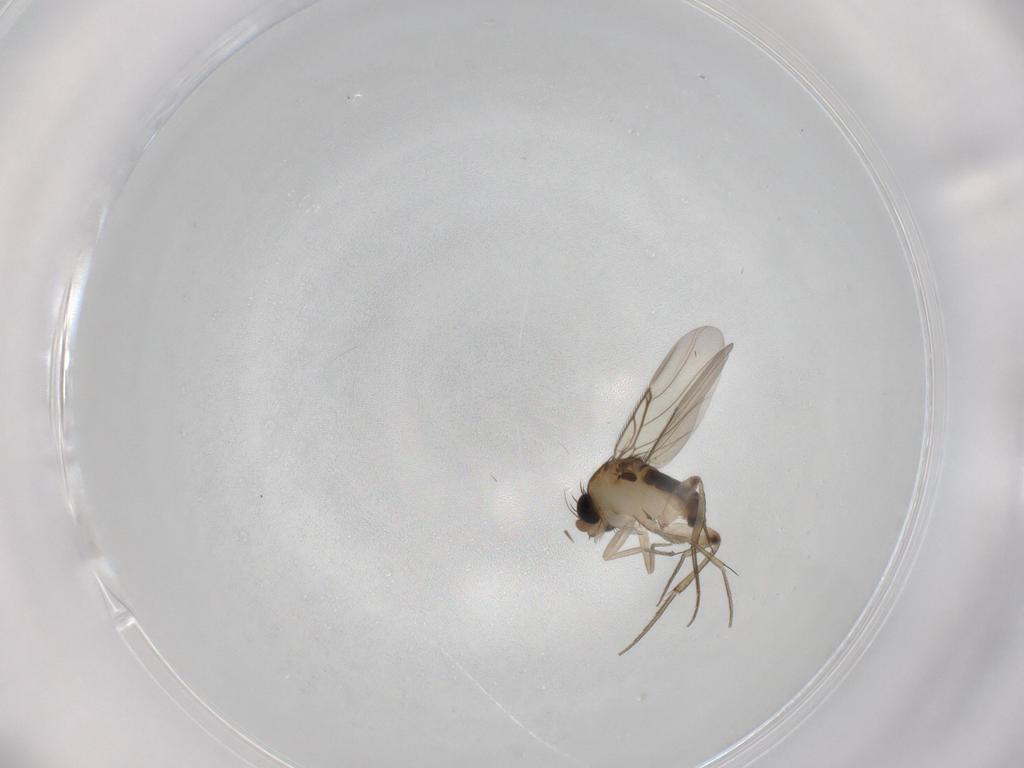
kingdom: Animalia
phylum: Arthropoda
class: Insecta
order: Diptera
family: Phoridae
